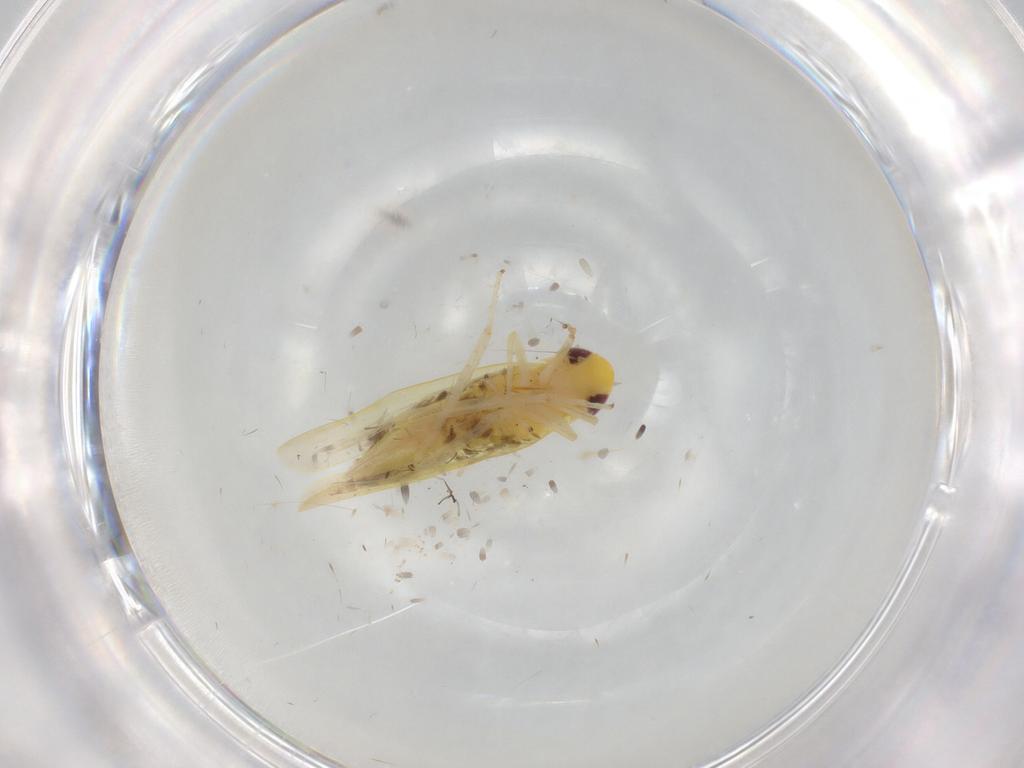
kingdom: Animalia
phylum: Arthropoda
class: Insecta
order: Hemiptera
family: Cicadellidae
